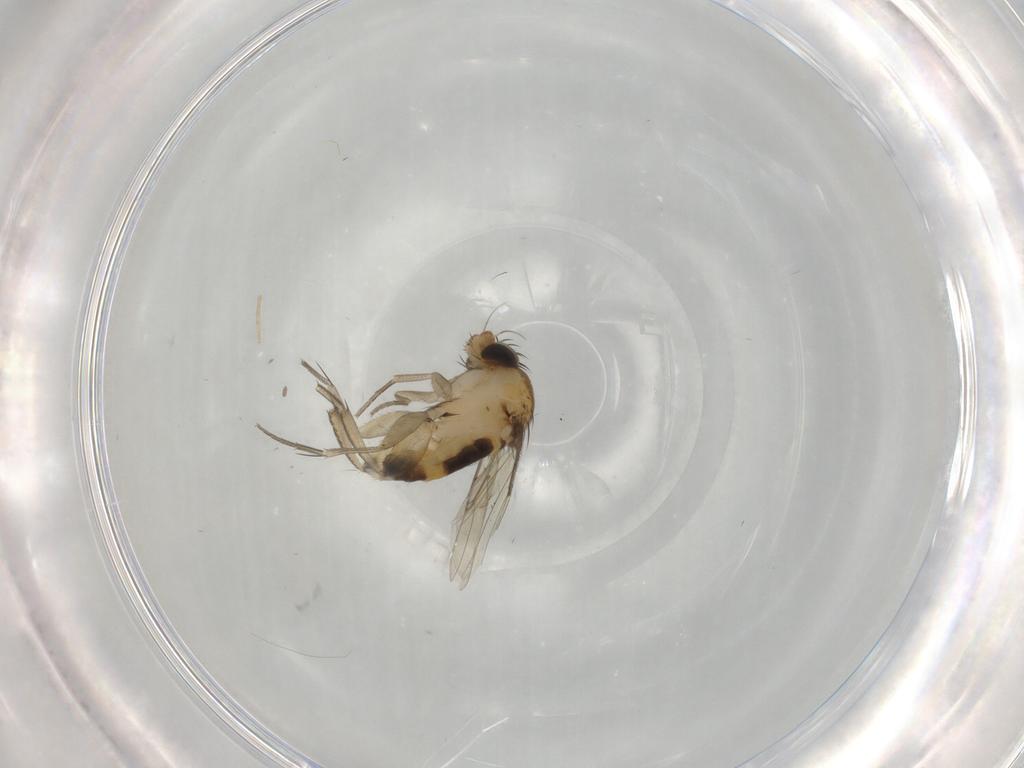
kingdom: Animalia
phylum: Arthropoda
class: Insecta
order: Diptera
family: Phoridae
